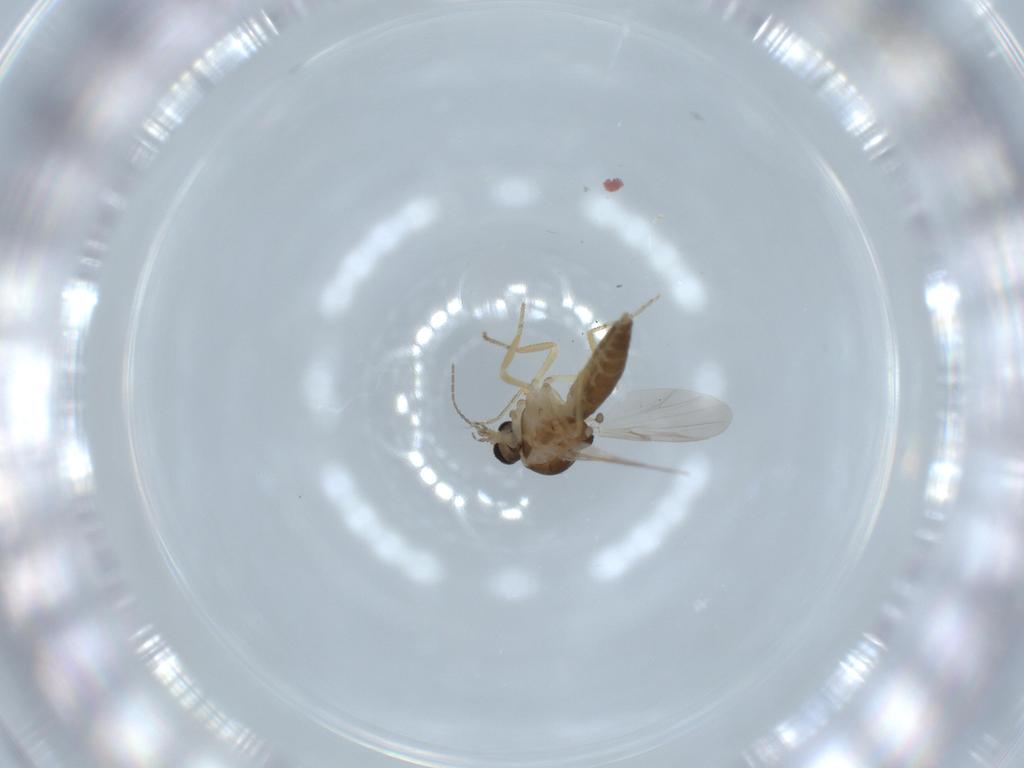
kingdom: Animalia
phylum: Arthropoda
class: Insecta
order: Diptera
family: Ceratopogonidae
